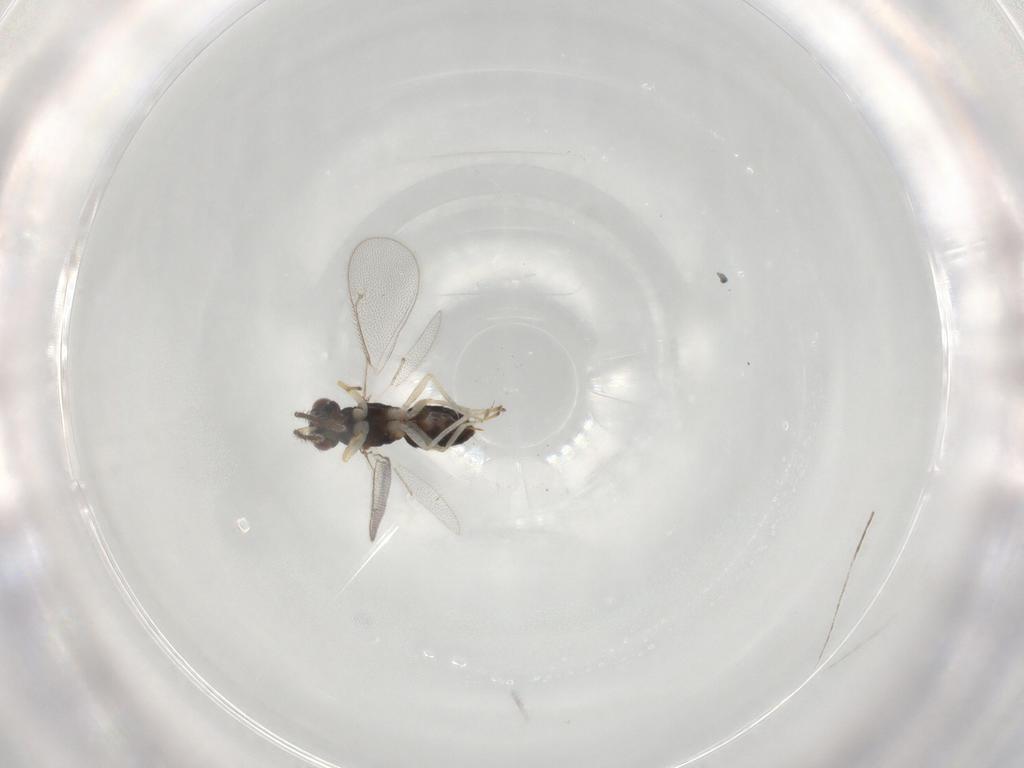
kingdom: Animalia
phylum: Arthropoda
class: Insecta
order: Hymenoptera
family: Eulophidae
